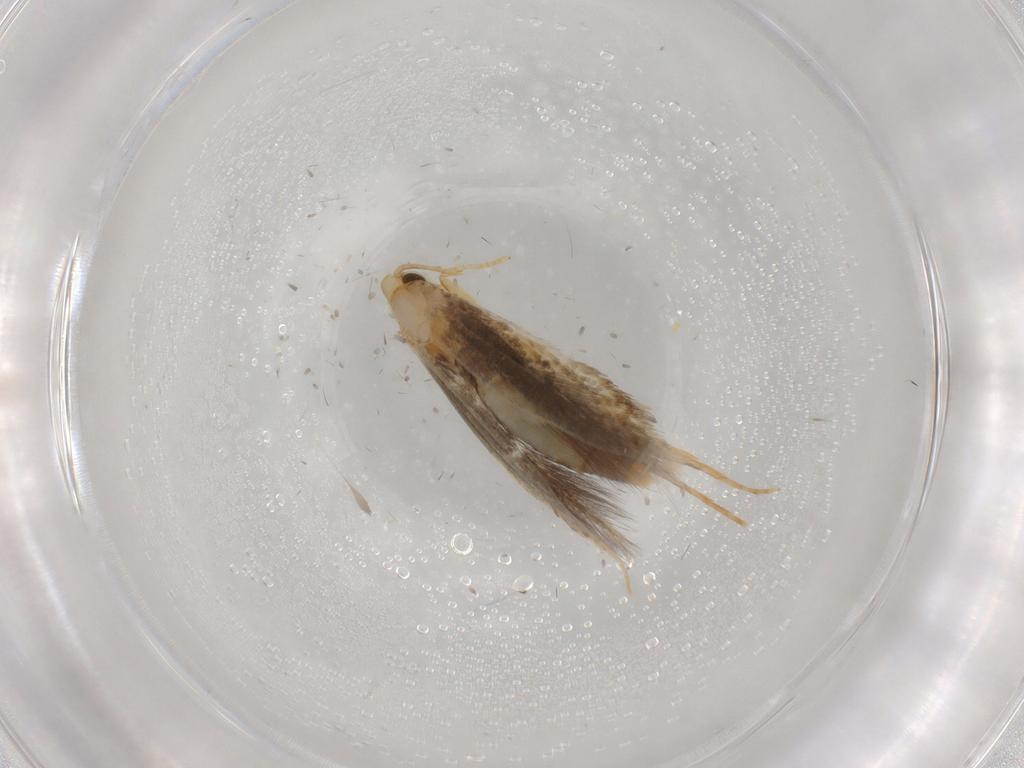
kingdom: Animalia
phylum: Arthropoda
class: Insecta
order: Lepidoptera
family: Tineidae
